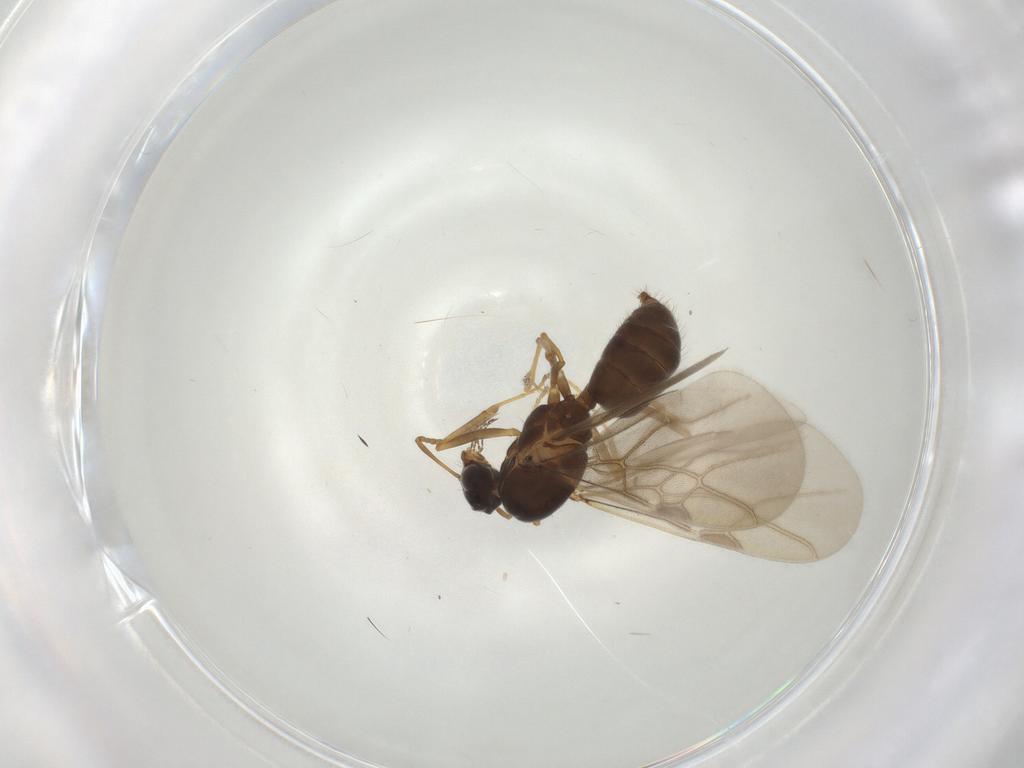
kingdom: Animalia
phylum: Arthropoda
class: Insecta
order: Hymenoptera
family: Formicidae
